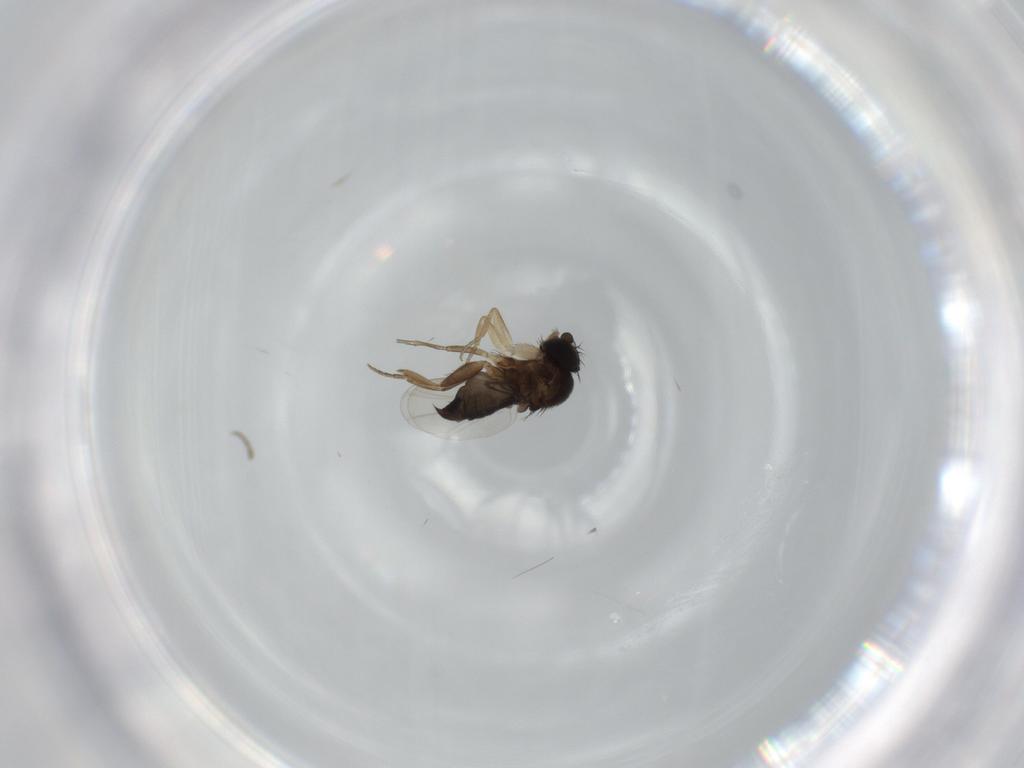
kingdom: Animalia
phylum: Arthropoda
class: Insecta
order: Diptera
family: Phoridae
